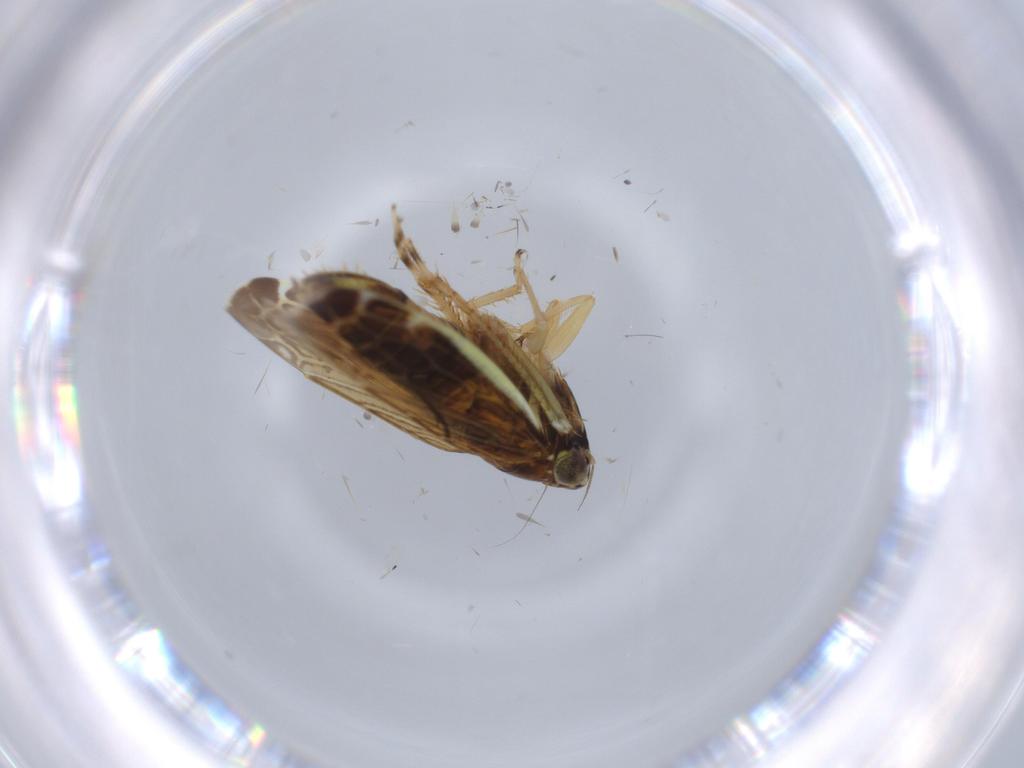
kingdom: Animalia
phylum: Arthropoda
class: Insecta
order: Hemiptera
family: Cicadellidae
